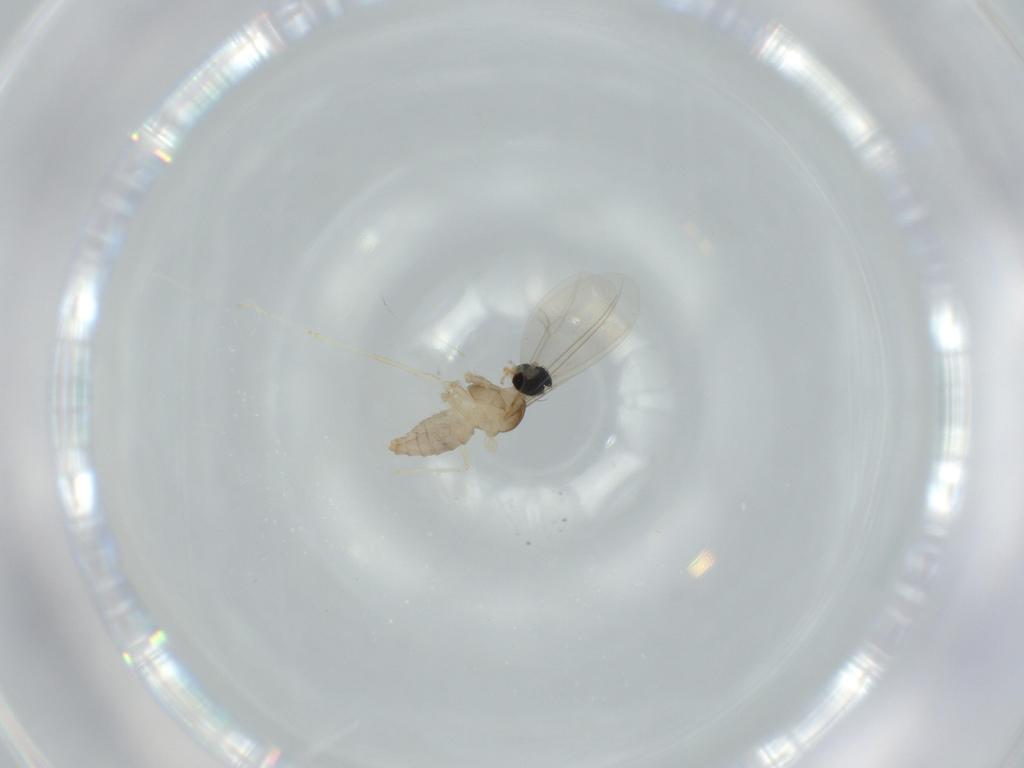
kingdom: Animalia
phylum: Arthropoda
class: Insecta
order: Diptera
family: Cecidomyiidae
